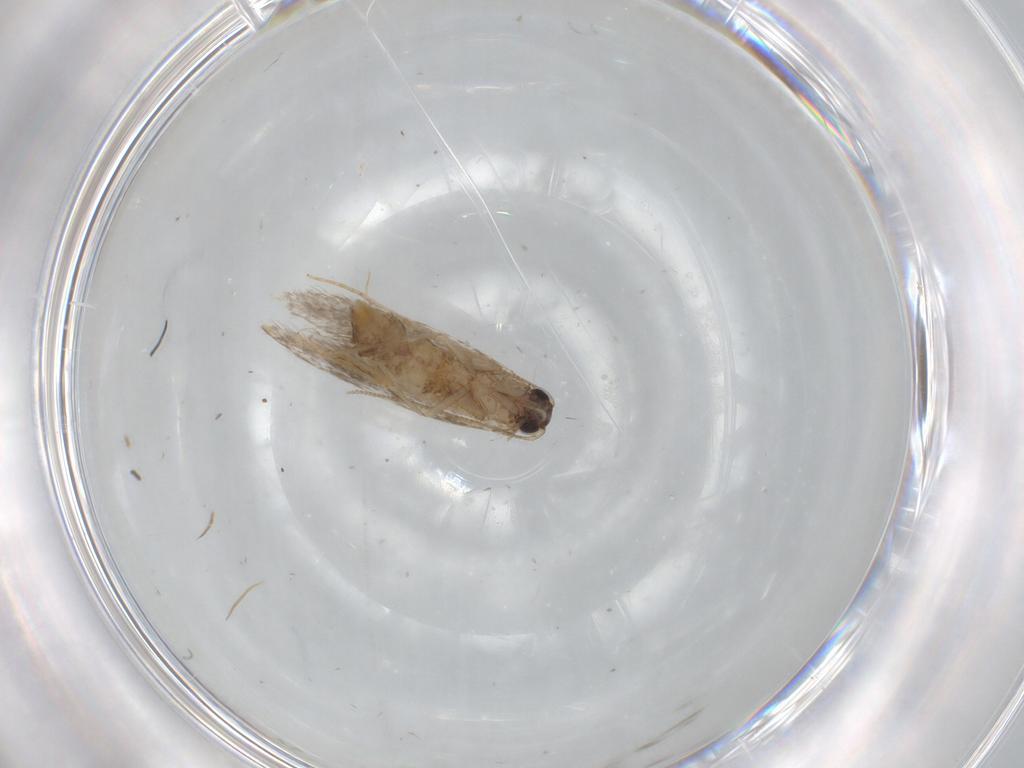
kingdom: Animalia
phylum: Arthropoda
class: Insecta
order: Lepidoptera
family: Tineidae
